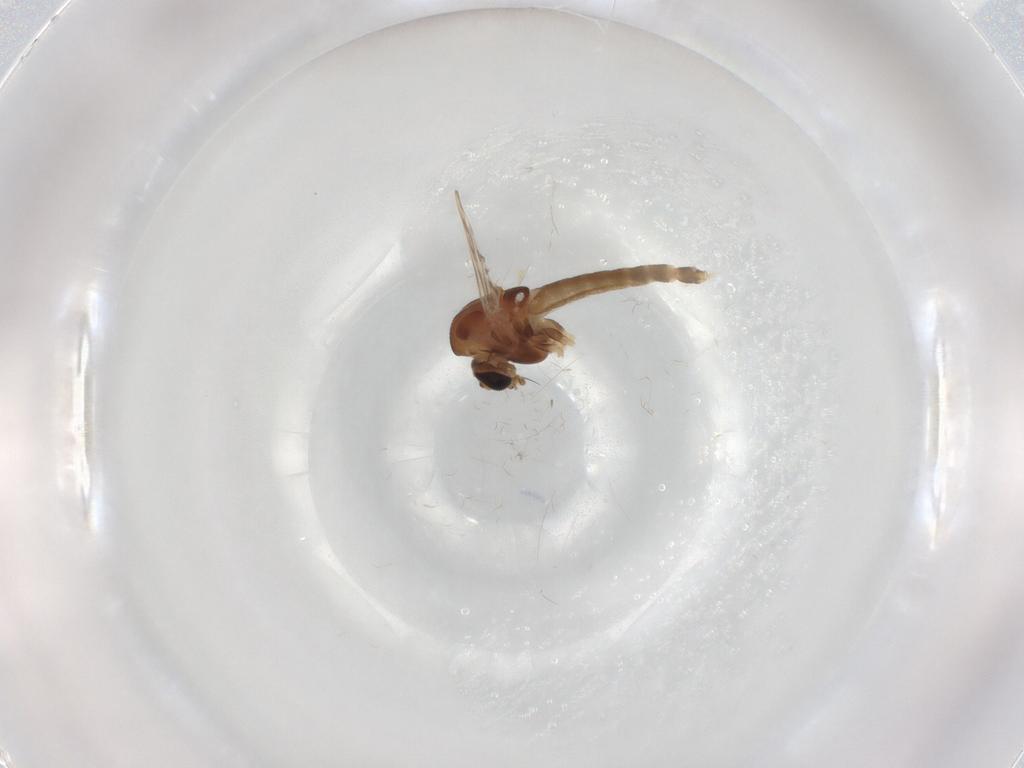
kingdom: Animalia
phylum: Arthropoda
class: Insecta
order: Diptera
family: Chironomidae
